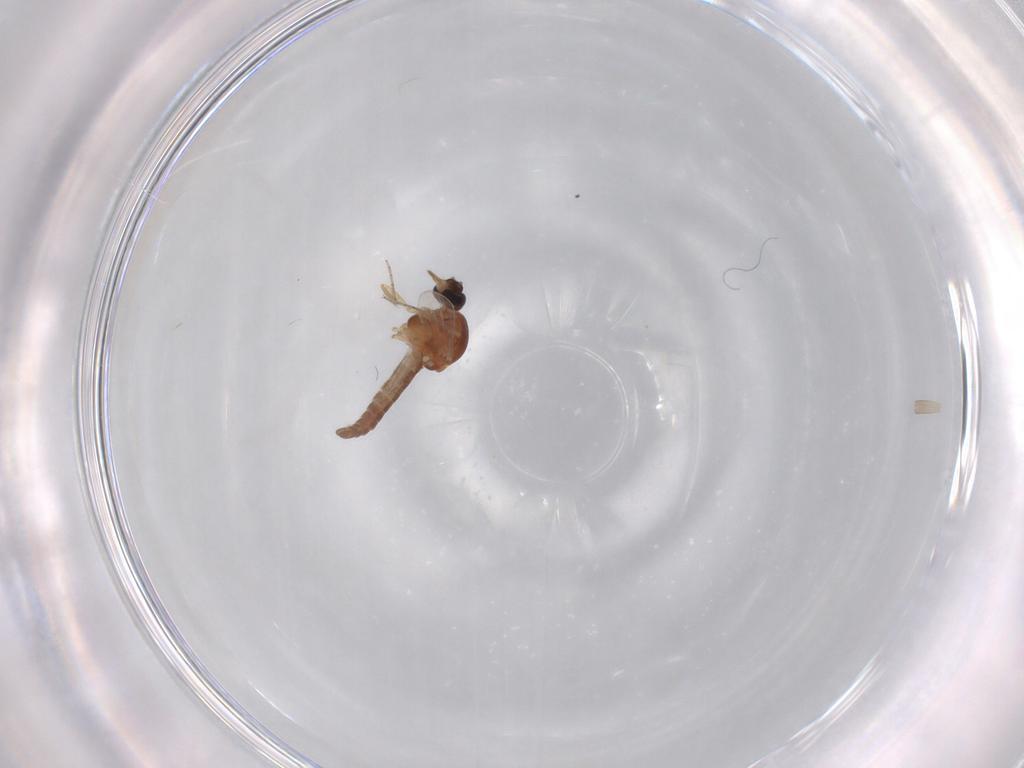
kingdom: Animalia
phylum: Arthropoda
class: Insecta
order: Diptera
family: Ceratopogonidae
